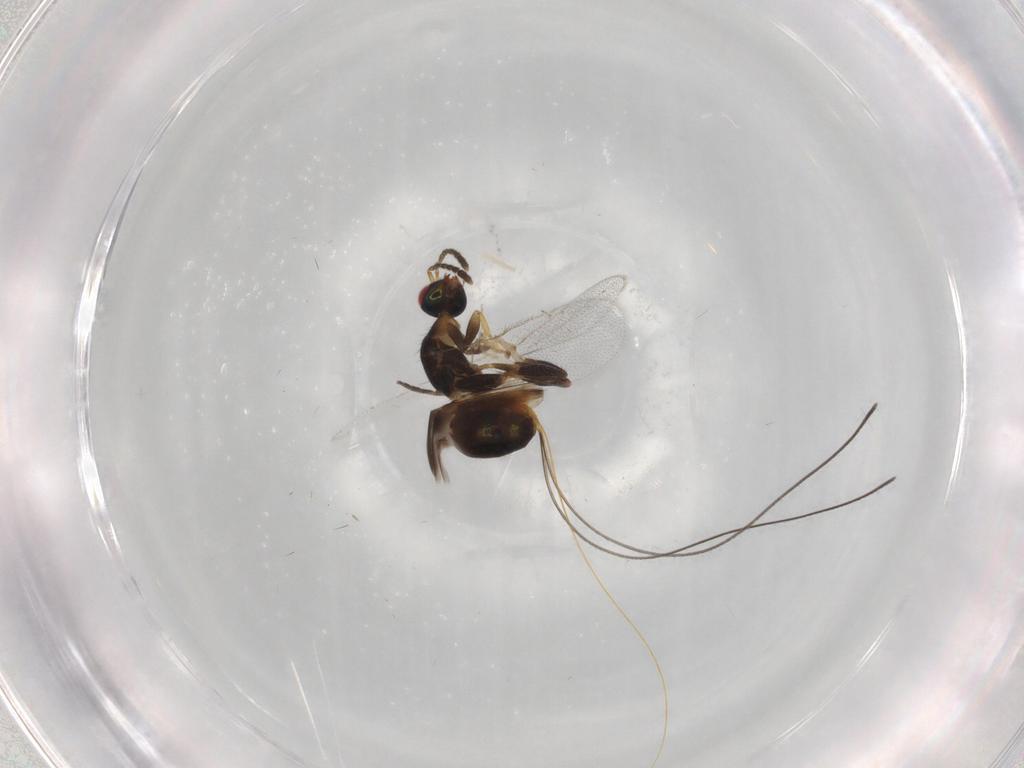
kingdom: Animalia
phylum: Arthropoda
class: Insecta
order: Hymenoptera
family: Torymidae
